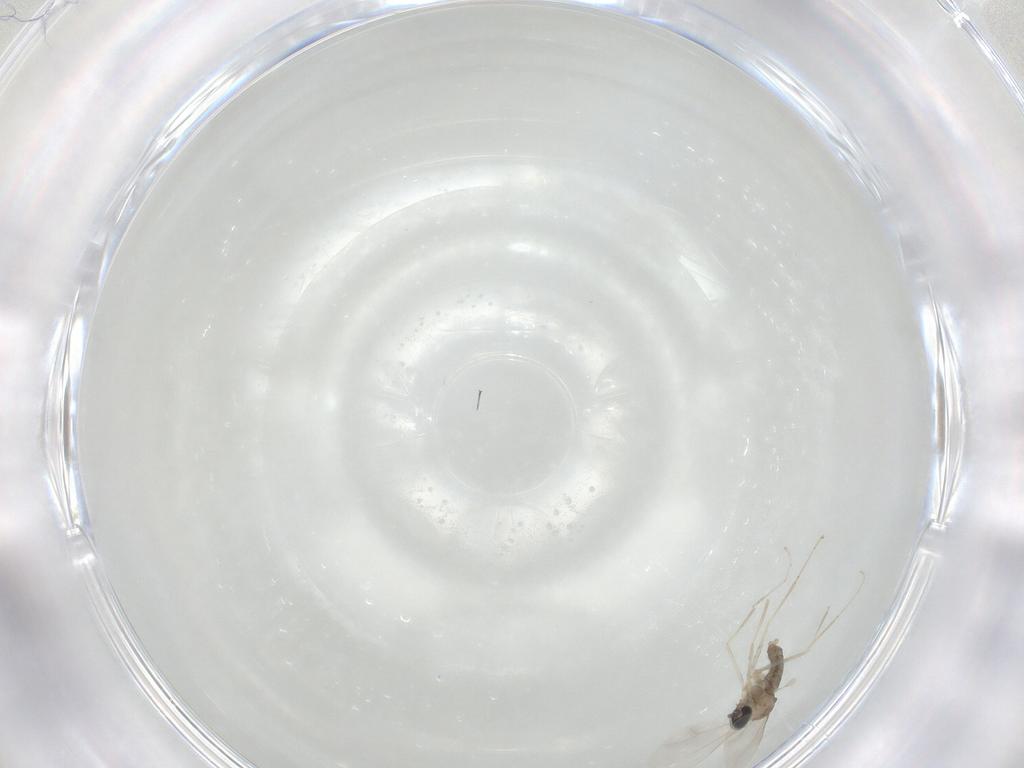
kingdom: Animalia
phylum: Arthropoda
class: Insecta
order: Diptera
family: Cecidomyiidae
